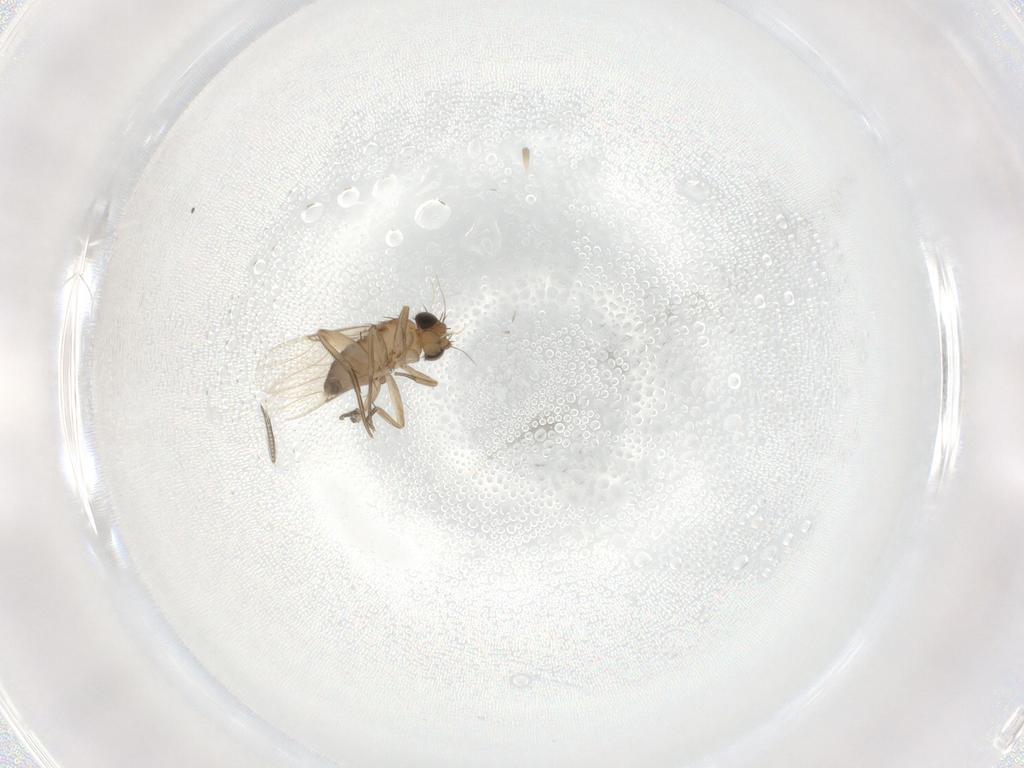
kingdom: Animalia
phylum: Arthropoda
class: Insecta
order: Diptera
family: Phoridae
